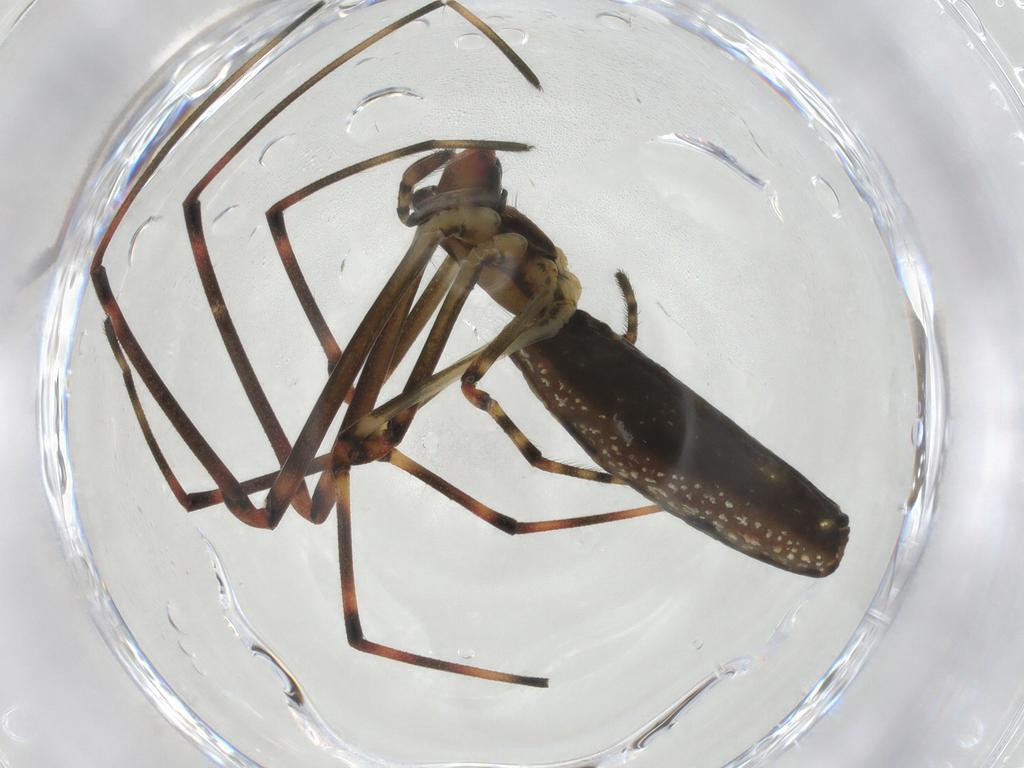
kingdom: Animalia
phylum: Arthropoda
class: Arachnida
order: Araneae
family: Tetragnathidae
